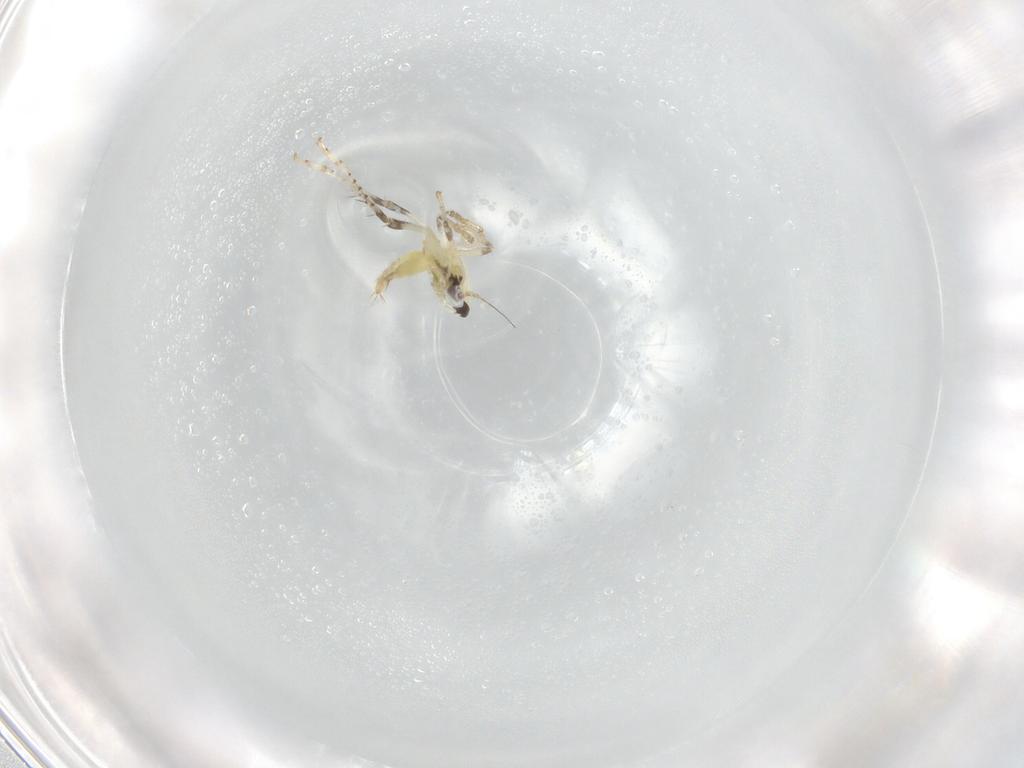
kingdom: Animalia
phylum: Arthropoda
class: Insecta
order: Hemiptera
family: Cicadellidae
